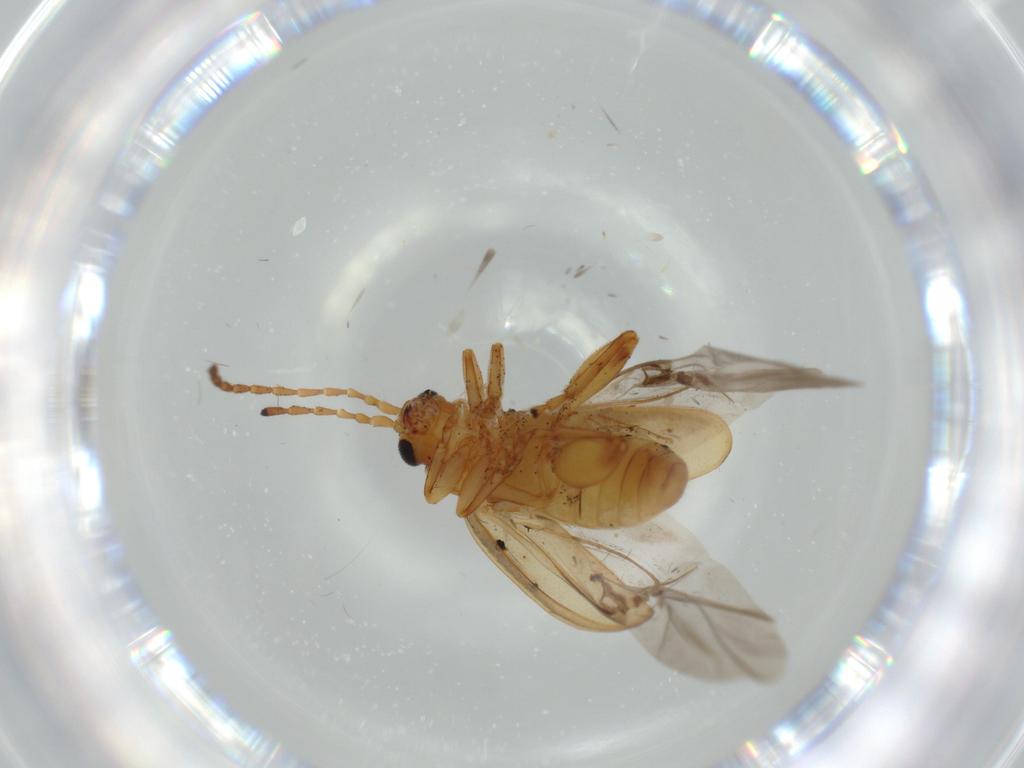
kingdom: Animalia
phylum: Arthropoda
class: Insecta
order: Coleoptera
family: Chrysomelidae
